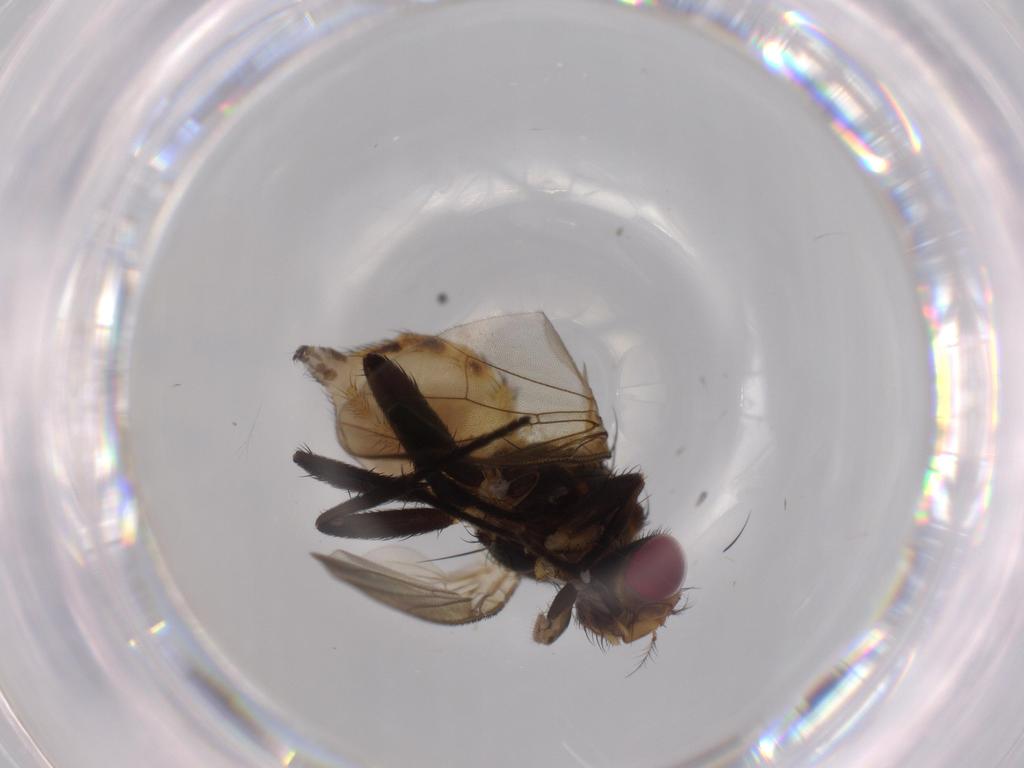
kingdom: Animalia
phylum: Arthropoda
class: Insecta
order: Diptera
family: Anthomyiidae
